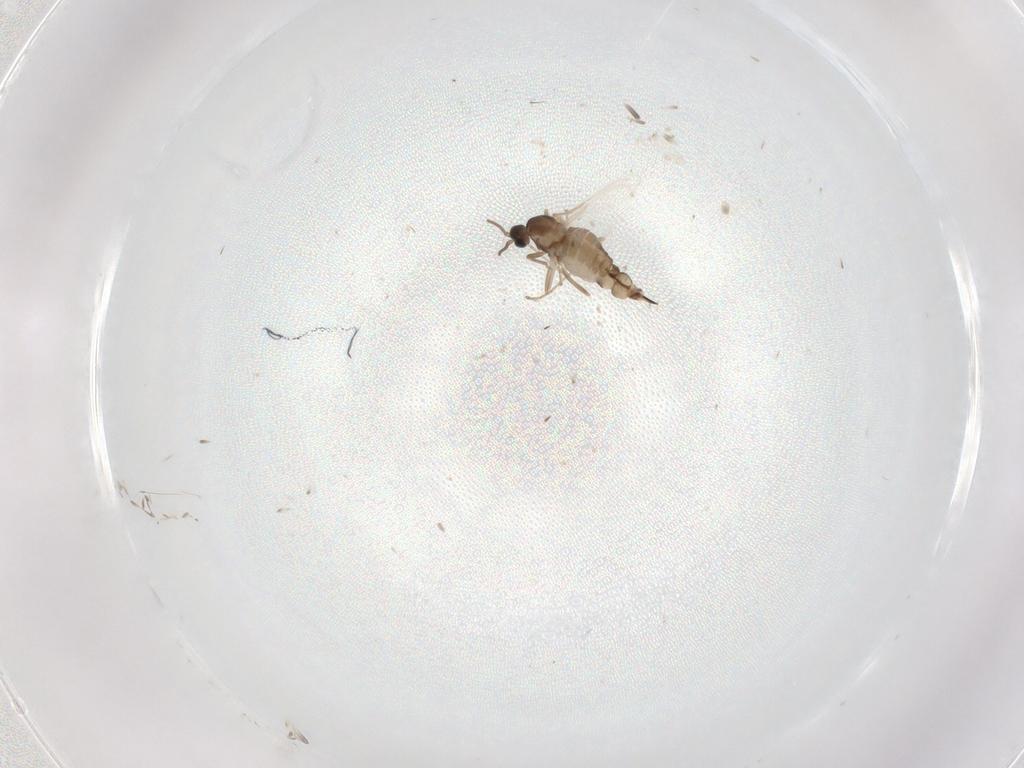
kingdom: Animalia
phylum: Arthropoda
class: Insecta
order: Diptera
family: Cecidomyiidae
